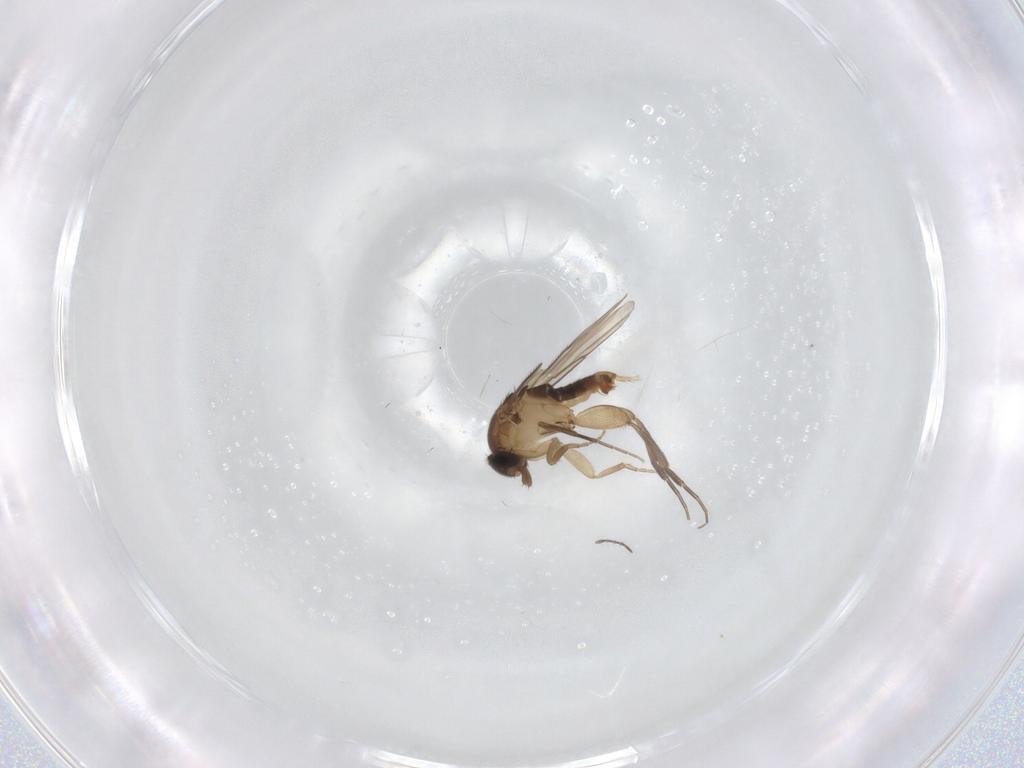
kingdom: Animalia
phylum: Arthropoda
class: Insecta
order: Diptera
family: Phoridae
